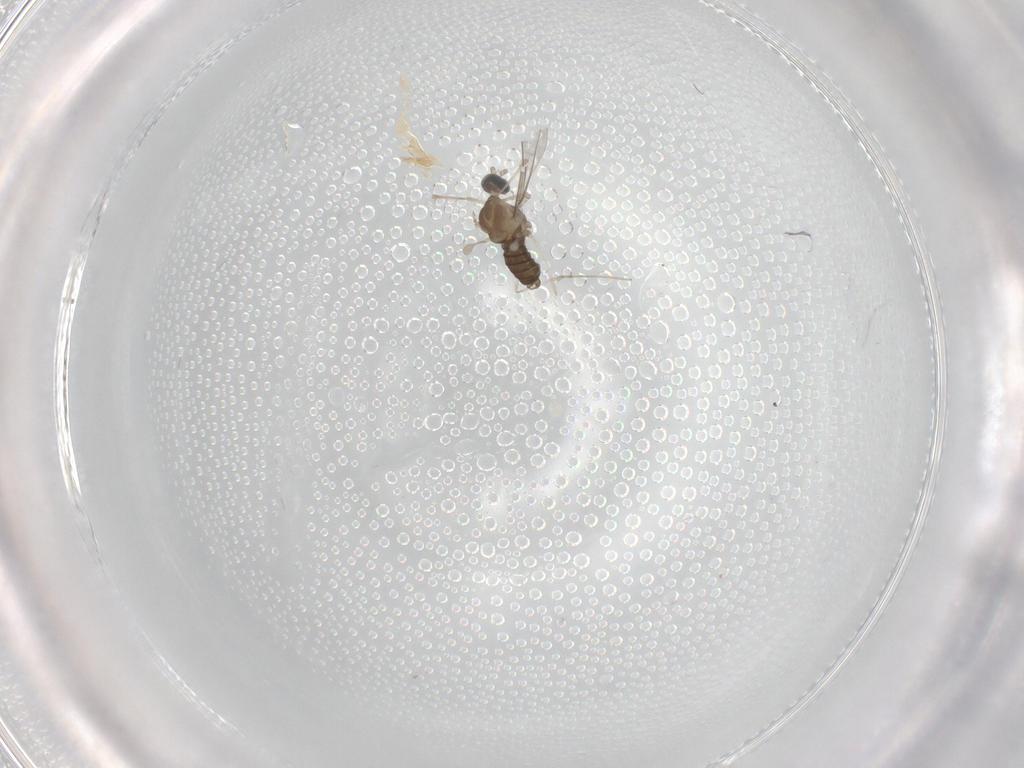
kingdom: Animalia
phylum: Arthropoda
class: Insecta
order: Diptera
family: Cecidomyiidae
